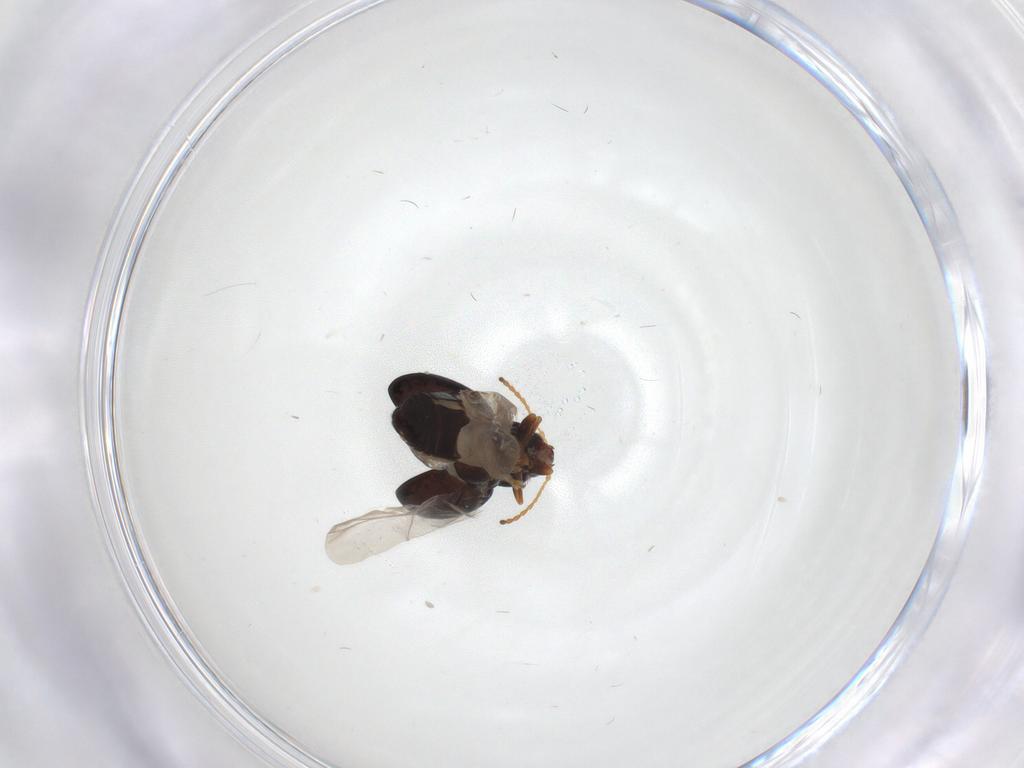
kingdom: Animalia
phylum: Arthropoda
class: Insecta
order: Coleoptera
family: Chrysomelidae
